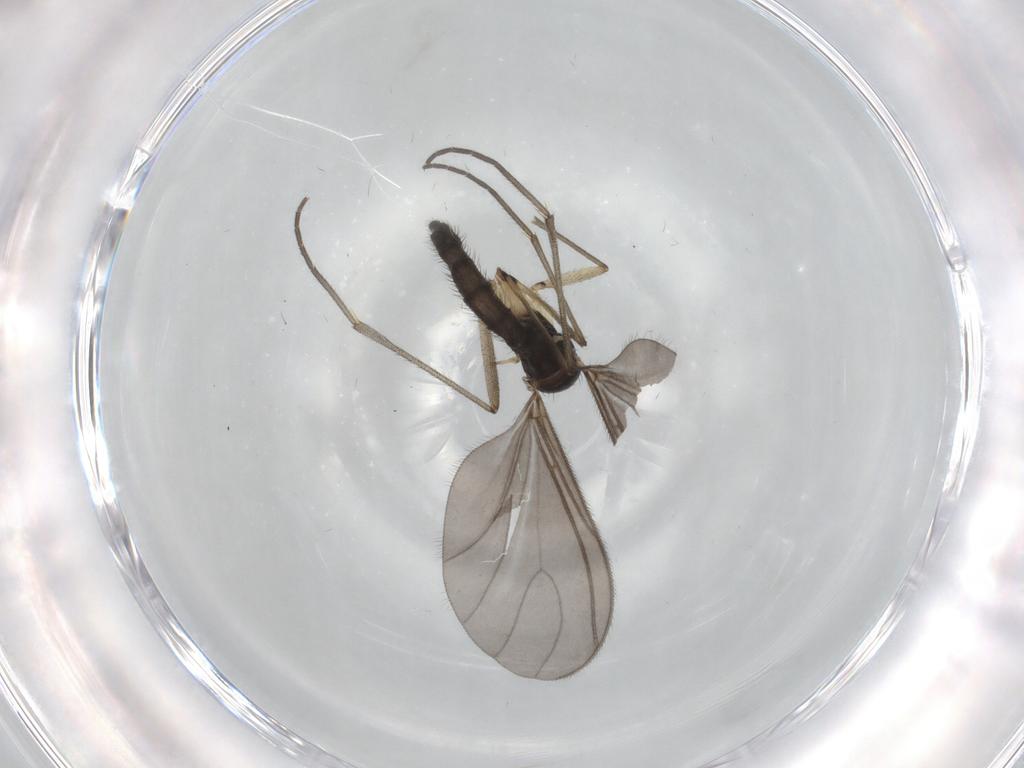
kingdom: Animalia
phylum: Arthropoda
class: Insecta
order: Diptera
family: Sciaridae
